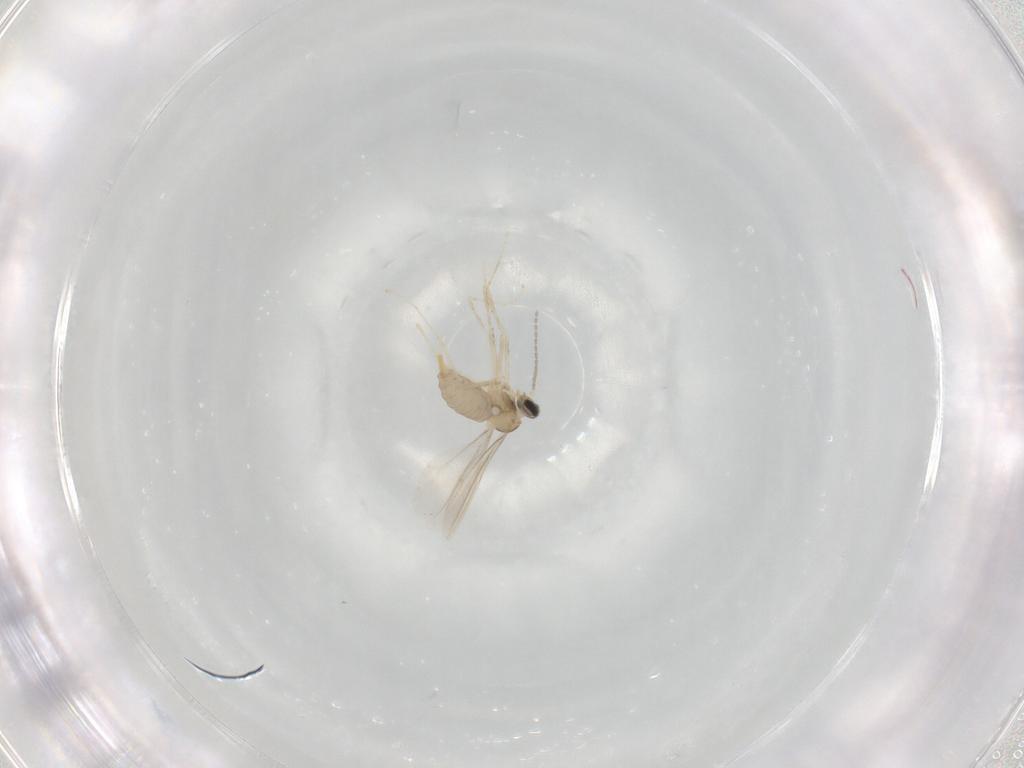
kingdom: Animalia
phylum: Arthropoda
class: Insecta
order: Diptera
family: Cecidomyiidae
